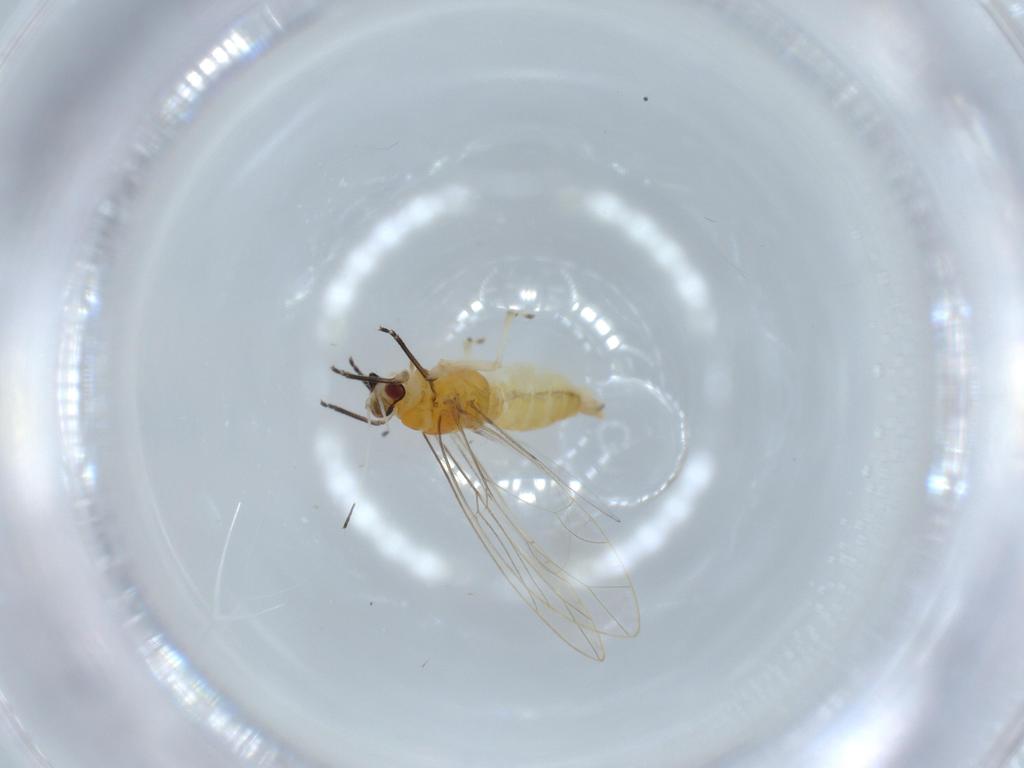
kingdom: Animalia
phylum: Arthropoda
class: Insecta
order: Hemiptera
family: Triozidae
